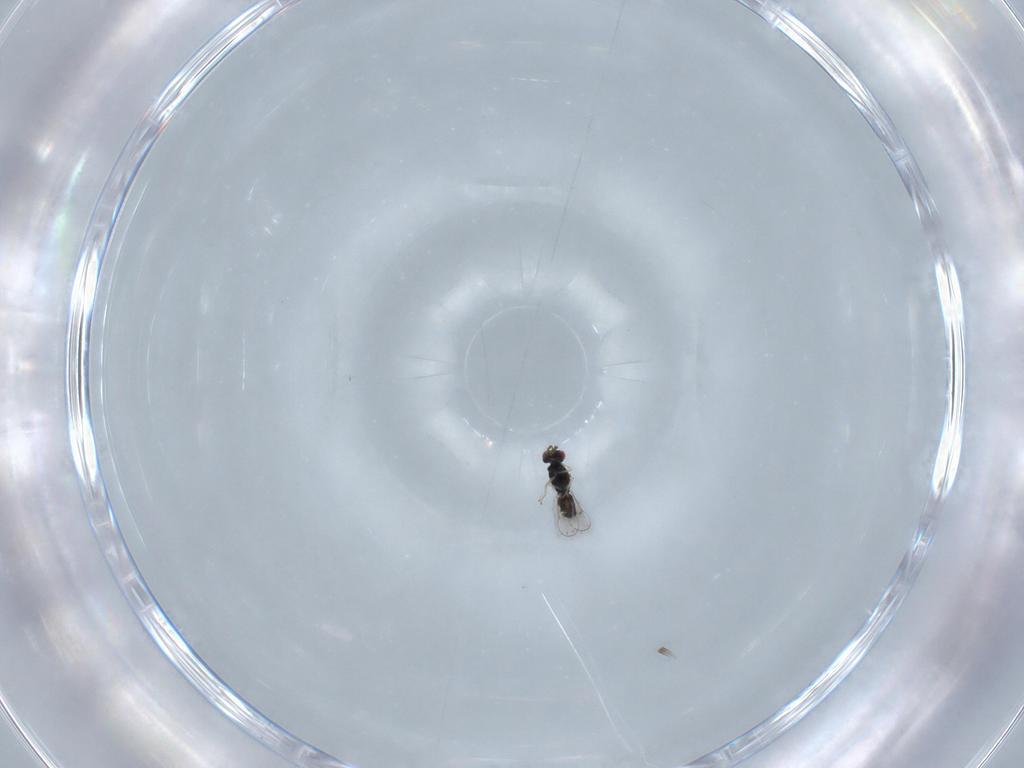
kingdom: Animalia
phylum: Arthropoda
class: Insecta
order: Hymenoptera
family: Eulophidae
